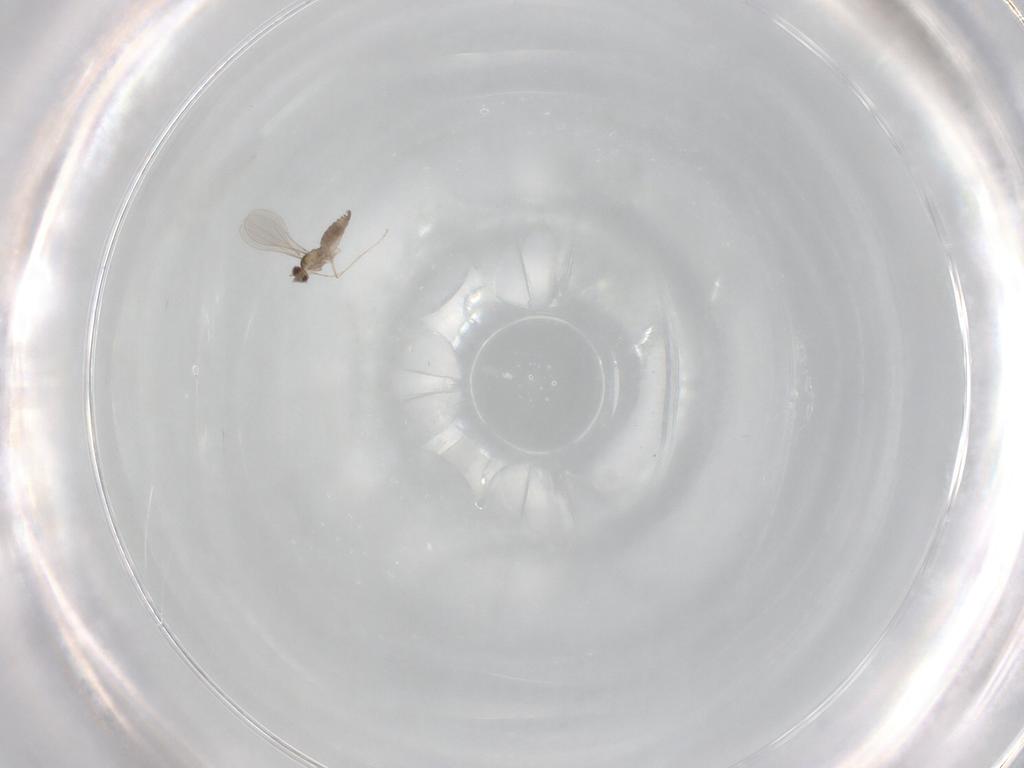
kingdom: Animalia
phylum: Arthropoda
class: Insecta
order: Diptera
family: Cecidomyiidae
